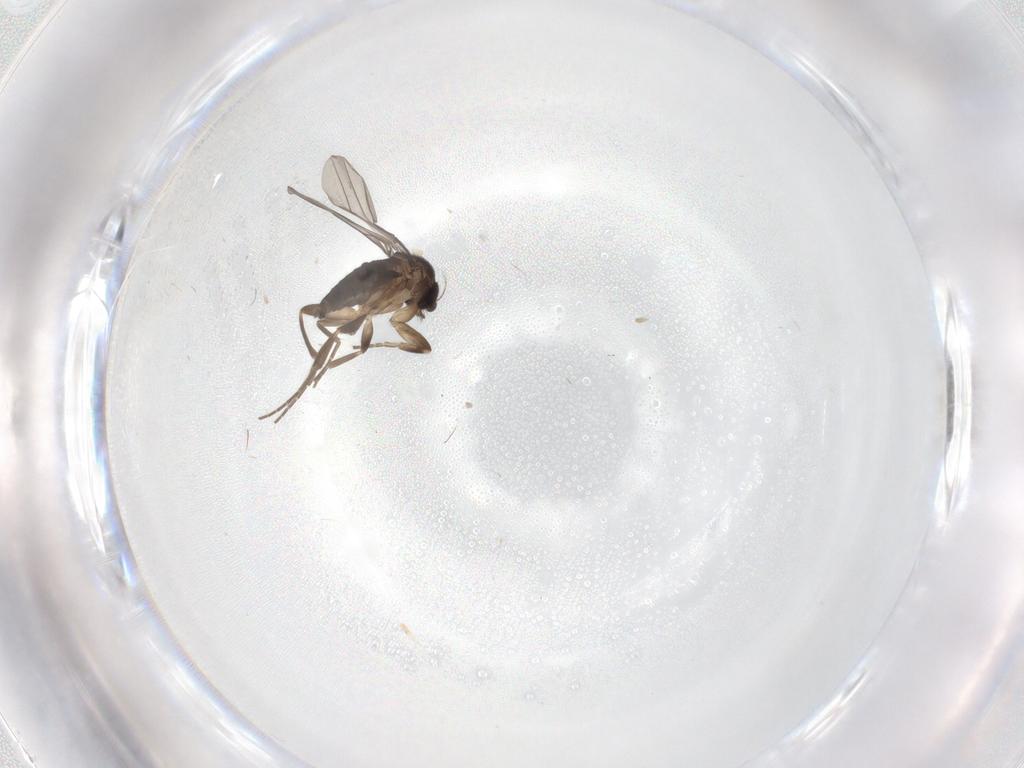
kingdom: Animalia
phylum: Arthropoda
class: Insecta
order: Diptera
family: Phoridae
